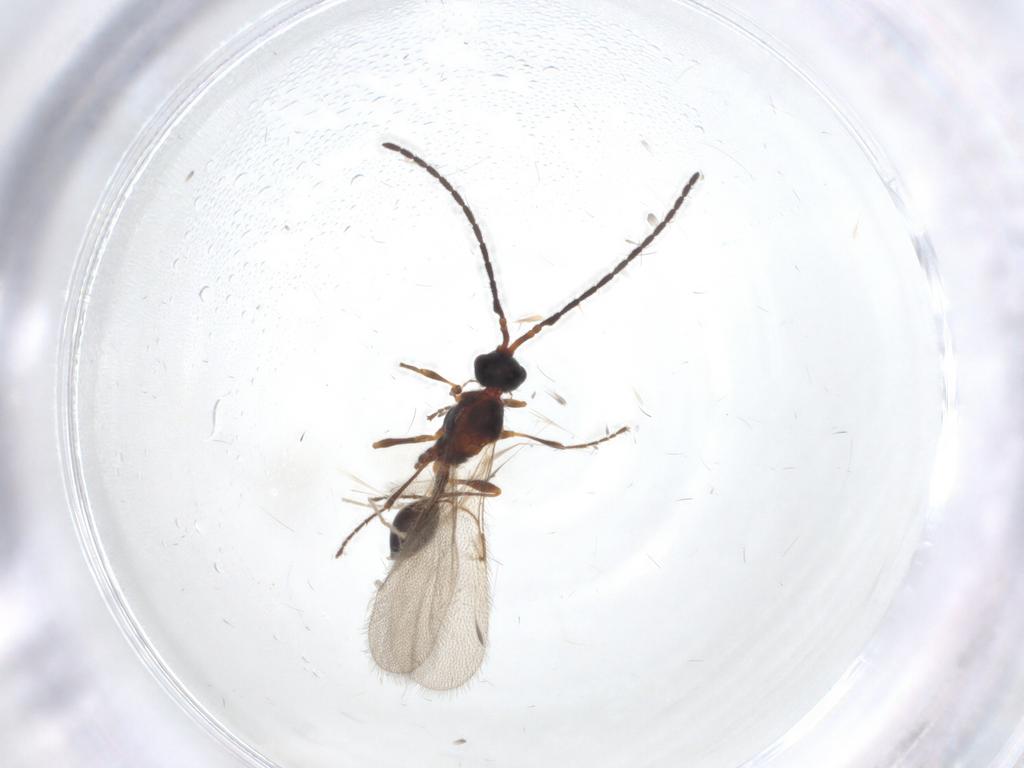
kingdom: Animalia
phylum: Arthropoda
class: Insecta
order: Hymenoptera
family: Diapriidae
